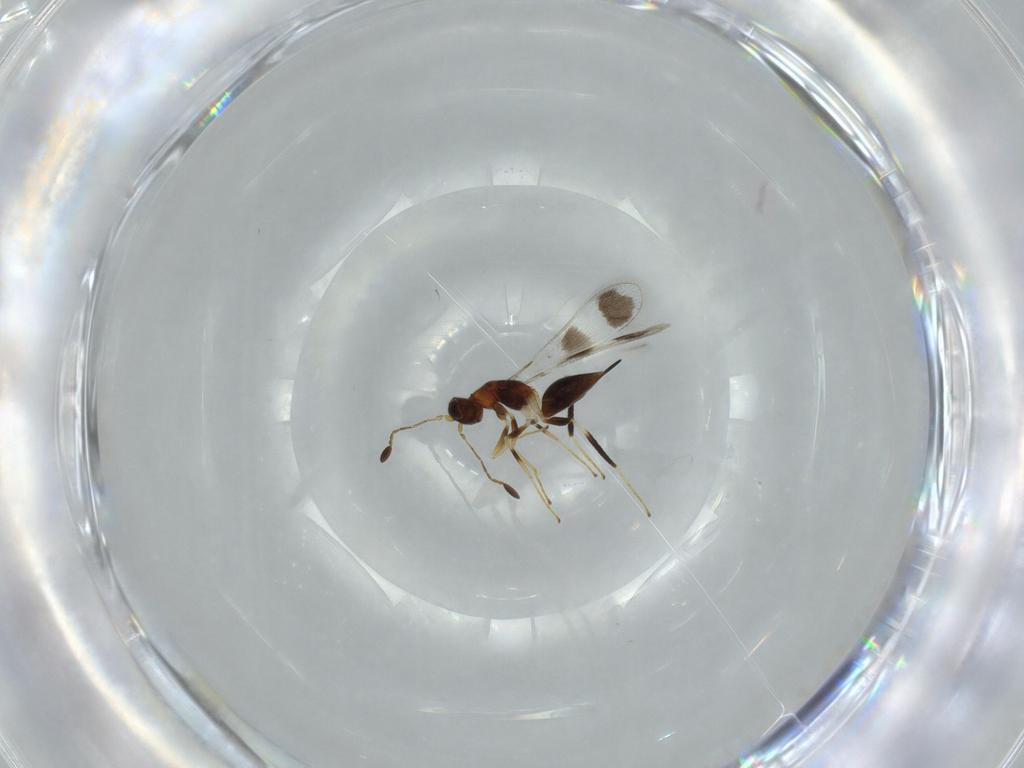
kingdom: Animalia
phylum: Arthropoda
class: Insecta
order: Hymenoptera
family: Mymaridae
